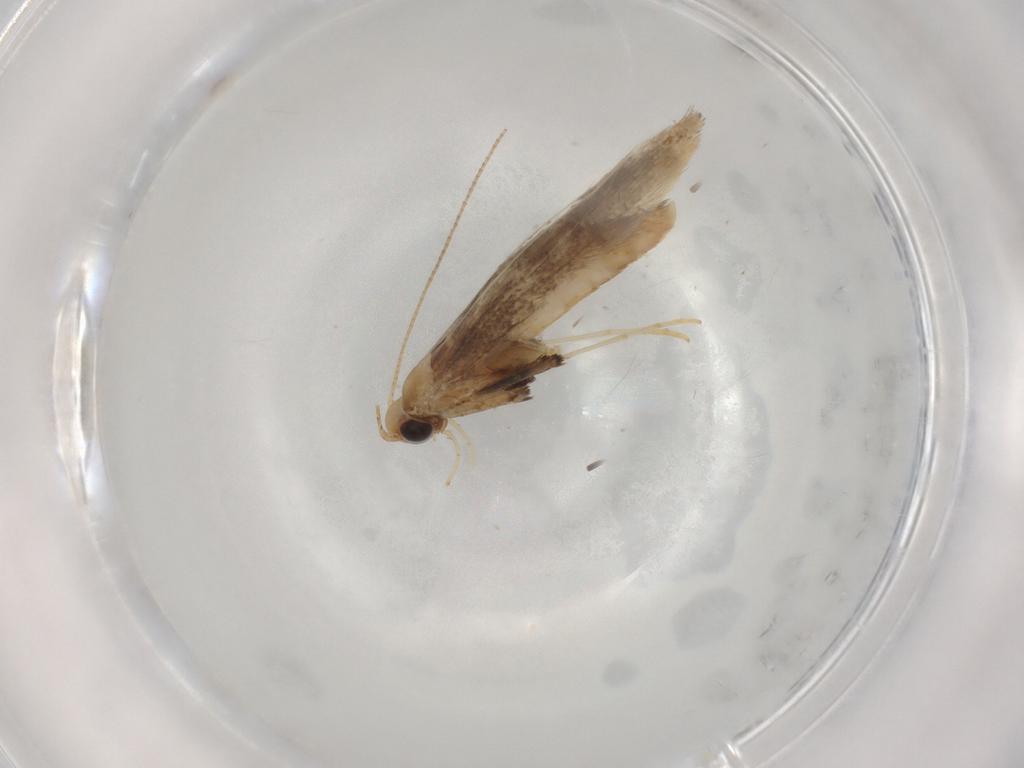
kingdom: Animalia
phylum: Arthropoda
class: Insecta
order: Lepidoptera
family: Gracillariidae
